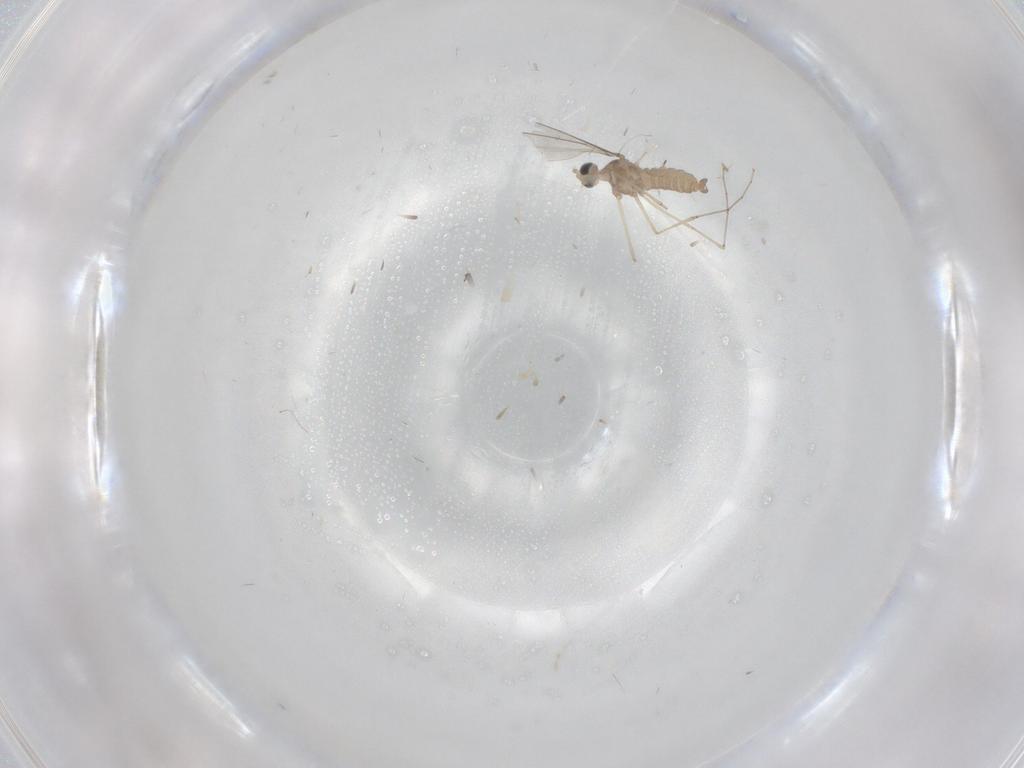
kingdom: Animalia
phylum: Arthropoda
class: Insecta
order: Diptera
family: Cecidomyiidae
